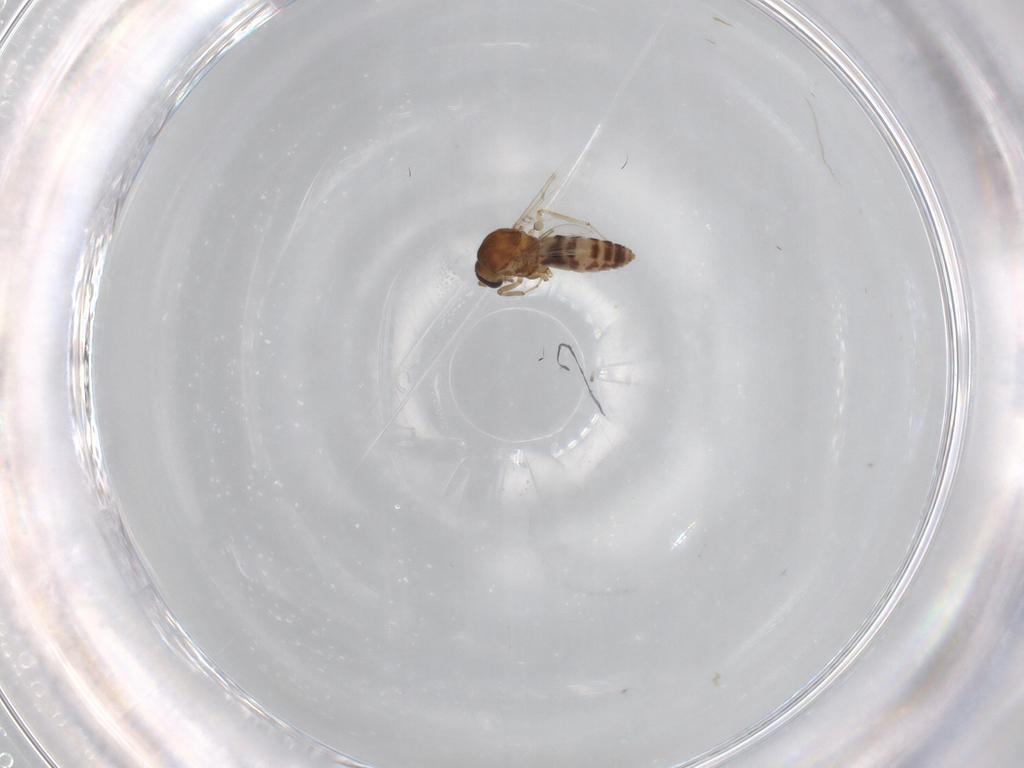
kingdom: Animalia
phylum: Arthropoda
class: Insecta
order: Diptera
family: Ceratopogonidae
